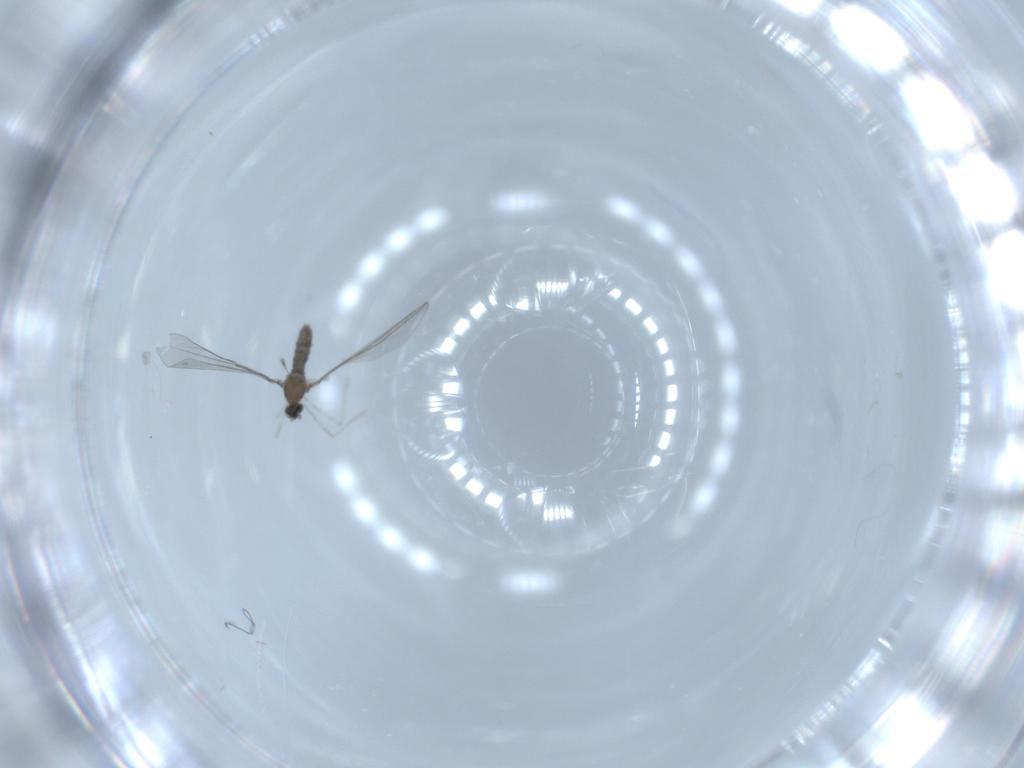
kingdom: Animalia
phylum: Arthropoda
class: Insecta
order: Diptera
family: Cecidomyiidae
